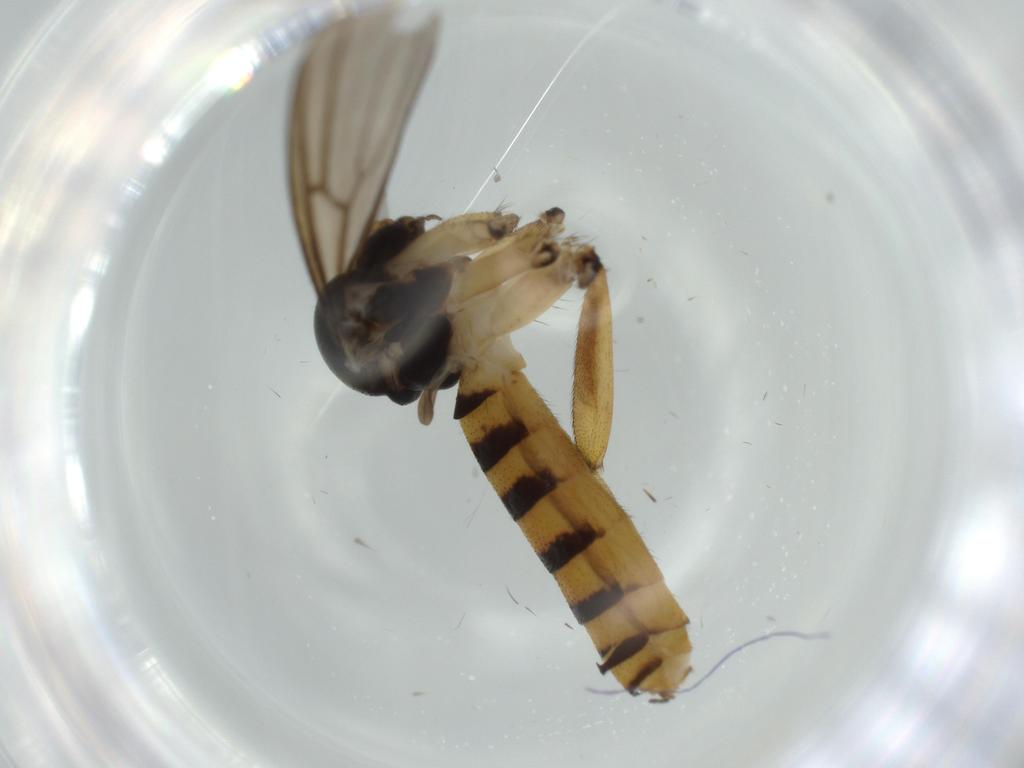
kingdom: Animalia
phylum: Arthropoda
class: Insecta
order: Diptera
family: Mycetophilidae
